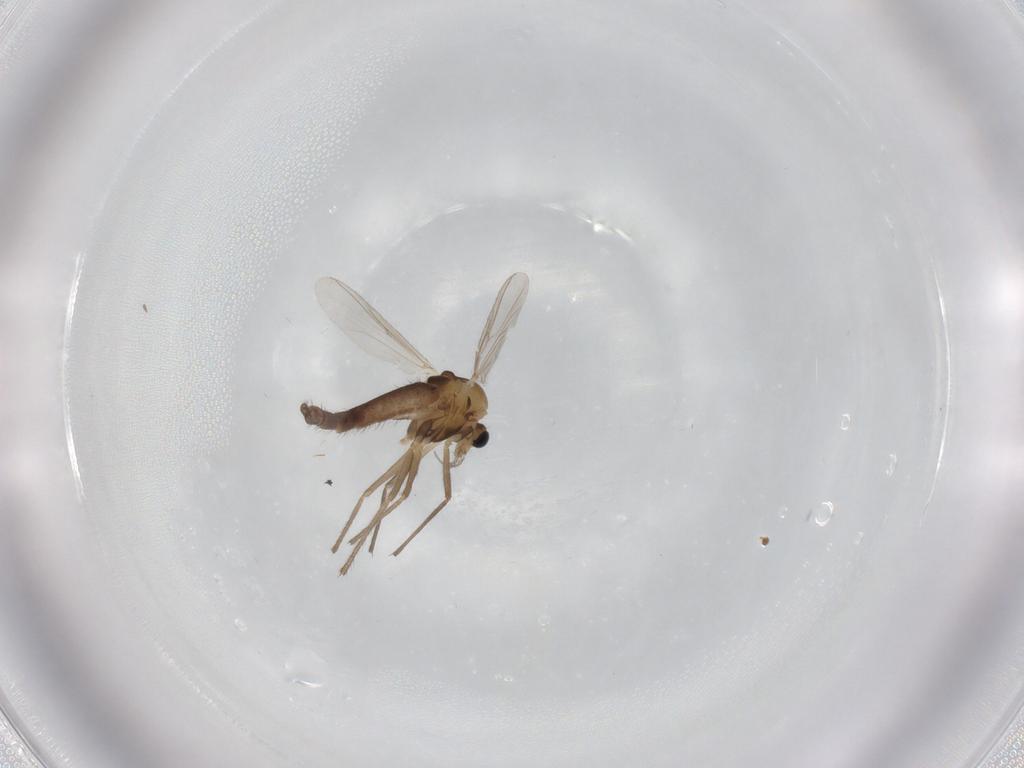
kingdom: Animalia
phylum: Arthropoda
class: Insecta
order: Diptera
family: Chironomidae
